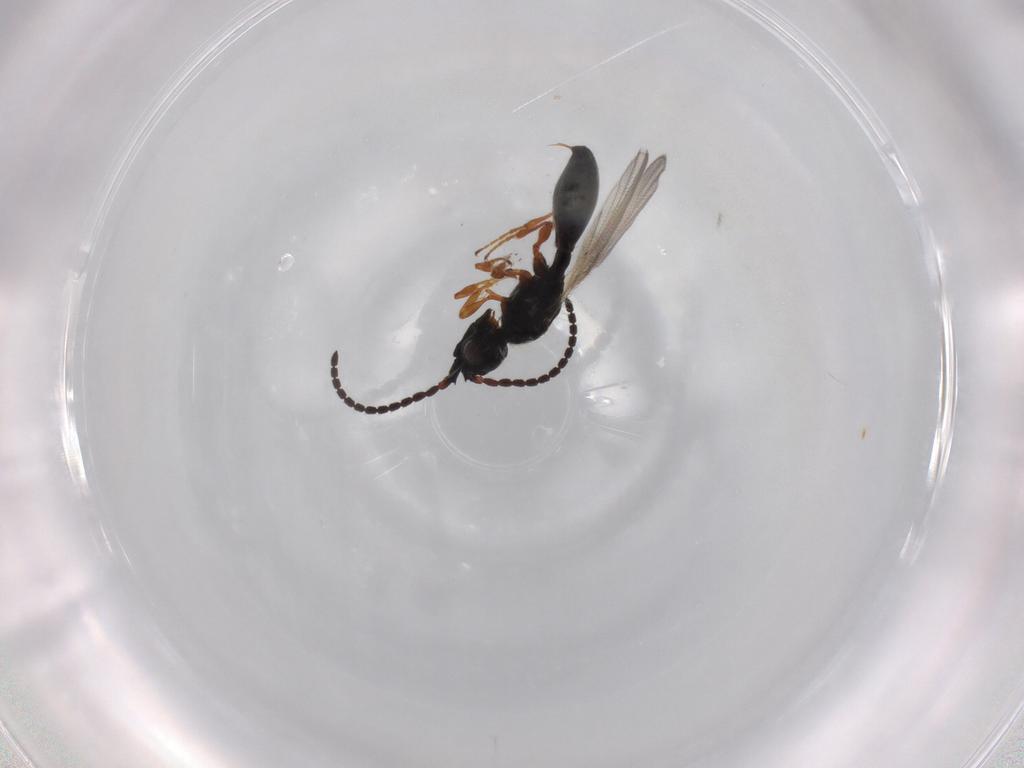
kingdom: Animalia
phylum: Arthropoda
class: Insecta
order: Hymenoptera
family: Diapriidae
